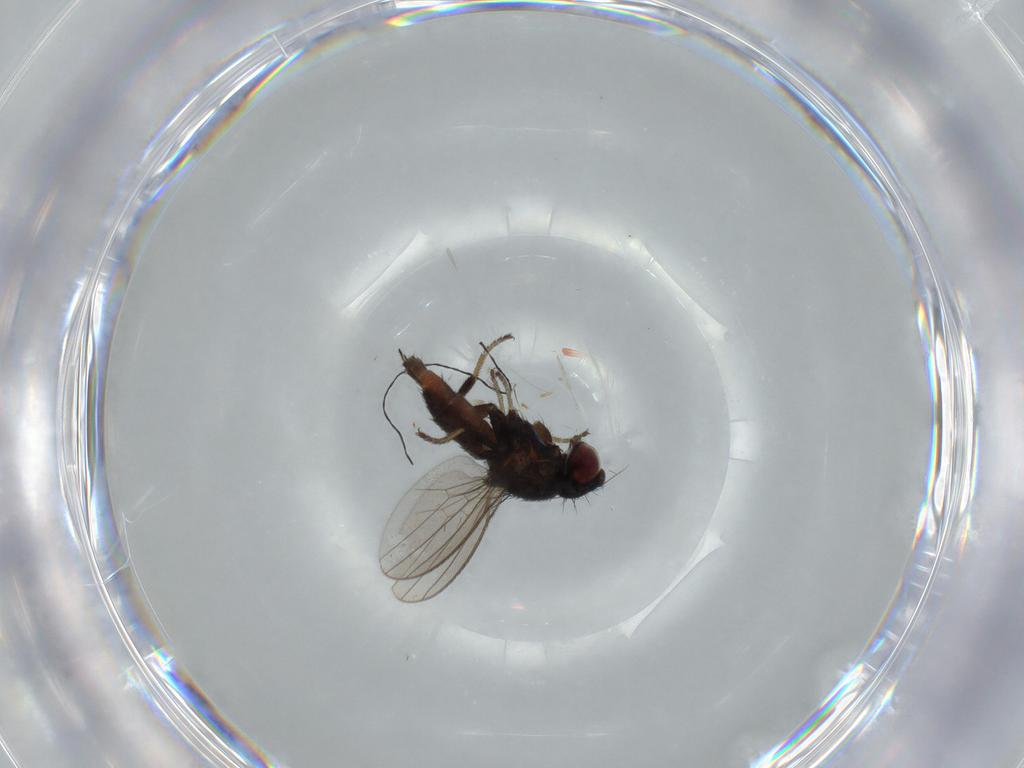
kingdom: Animalia
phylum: Arthropoda
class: Insecta
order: Diptera
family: Milichiidae
